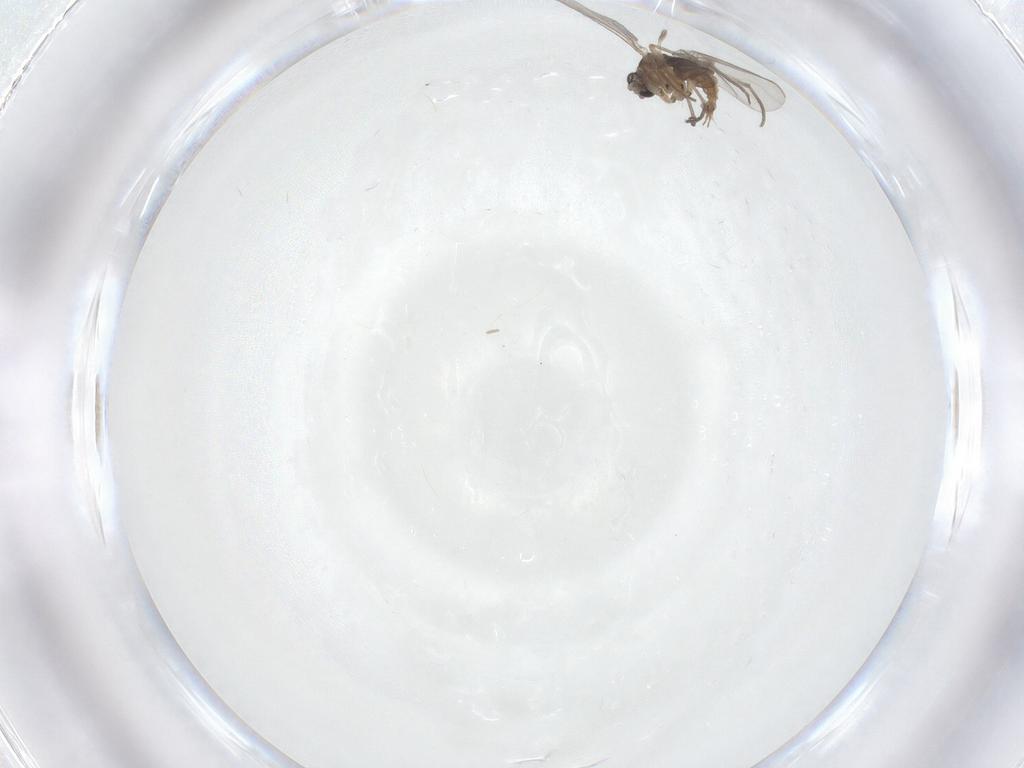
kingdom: Animalia
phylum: Arthropoda
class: Insecta
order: Diptera
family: Sciaridae
